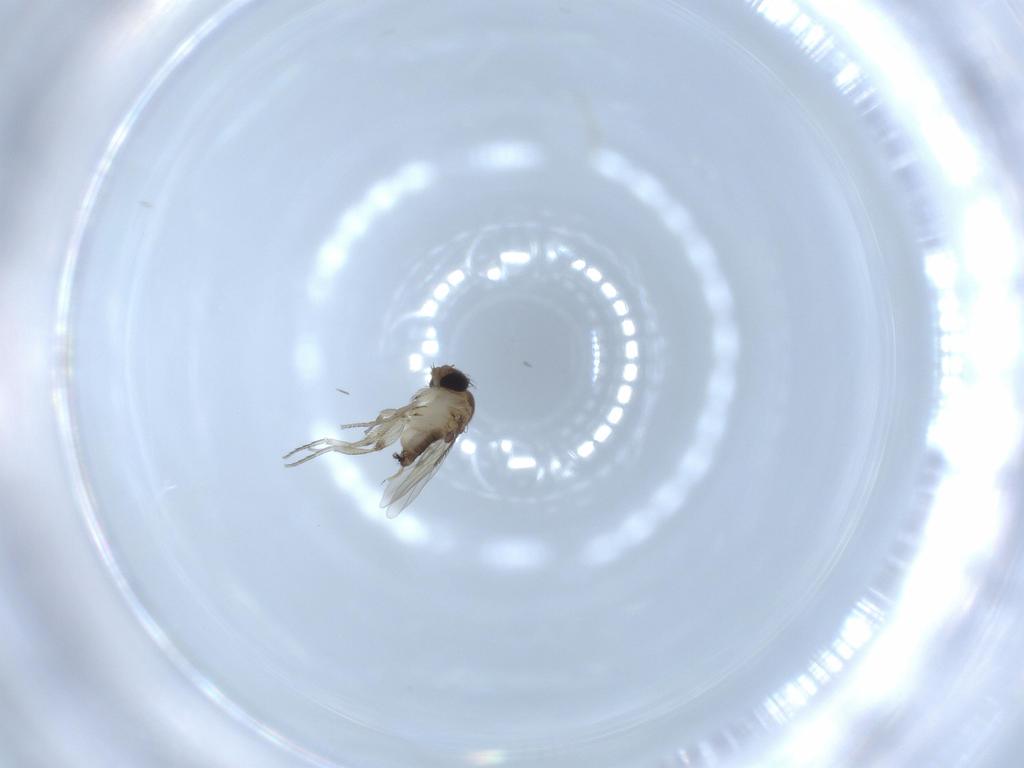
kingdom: Animalia
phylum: Arthropoda
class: Insecta
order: Diptera
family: Phoridae
